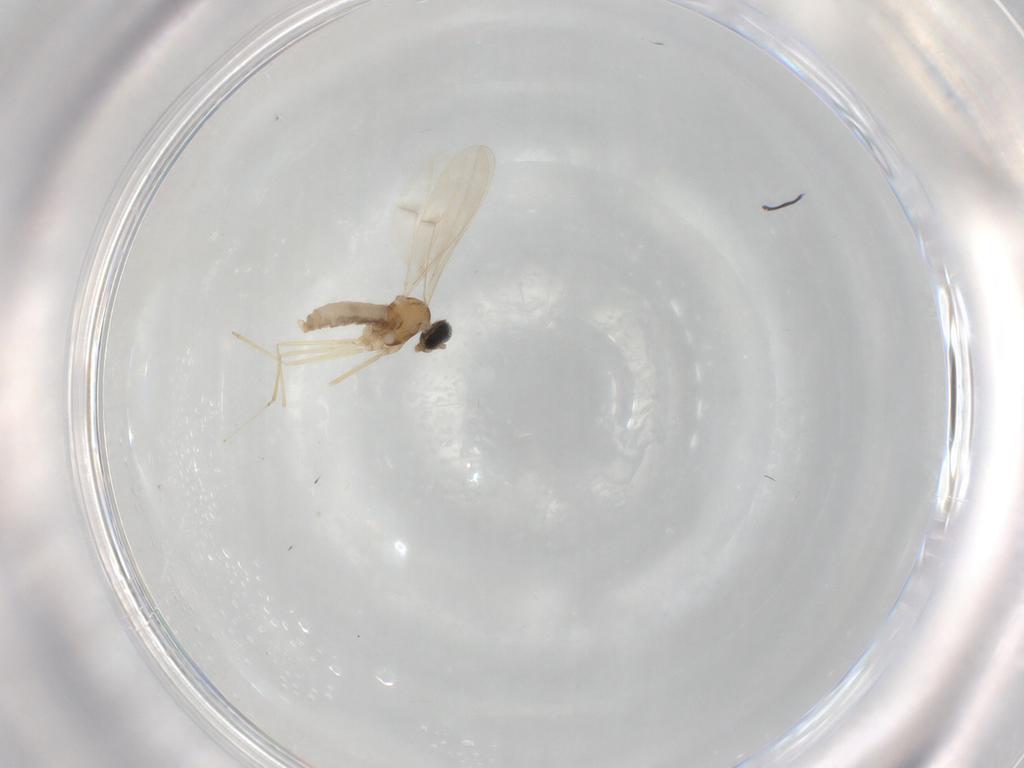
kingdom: Animalia
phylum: Arthropoda
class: Insecta
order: Diptera
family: Cecidomyiidae
